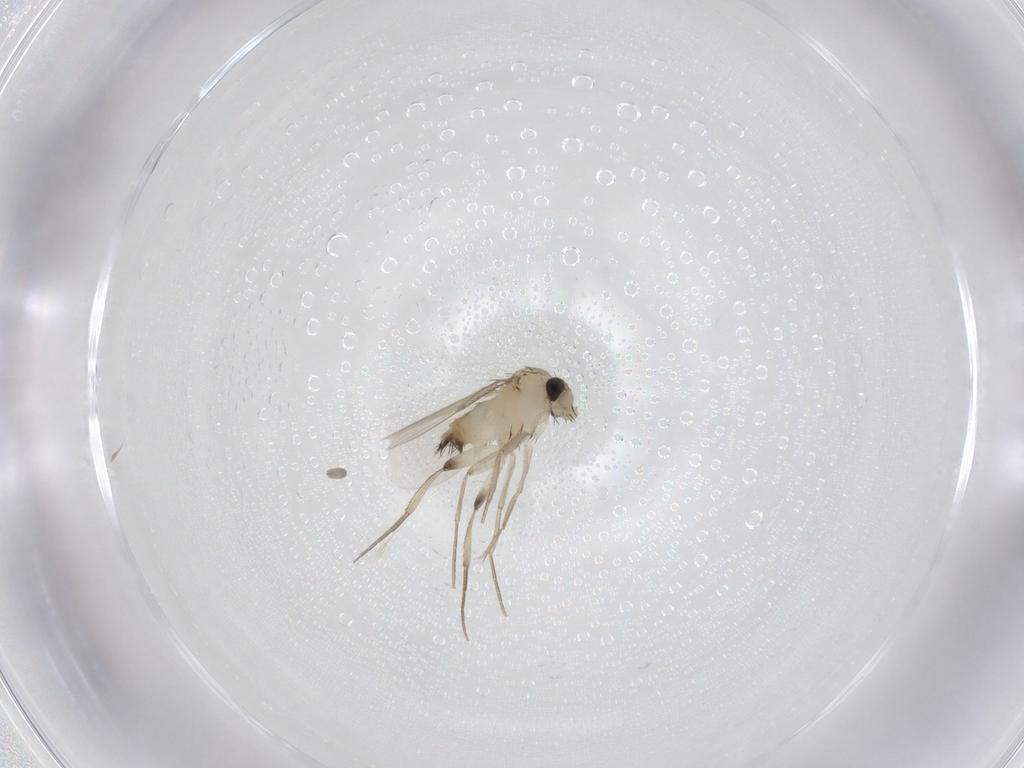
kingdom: Animalia
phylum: Arthropoda
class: Insecta
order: Diptera
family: Phoridae
